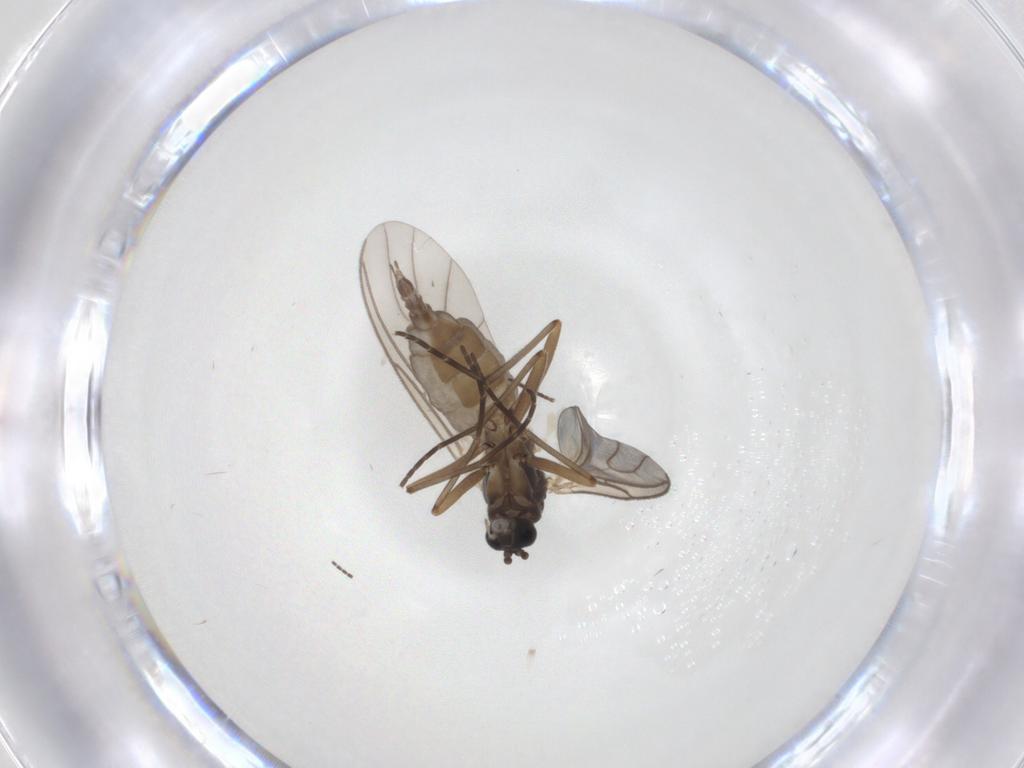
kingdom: Animalia
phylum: Arthropoda
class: Insecta
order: Diptera
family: Sciaridae
